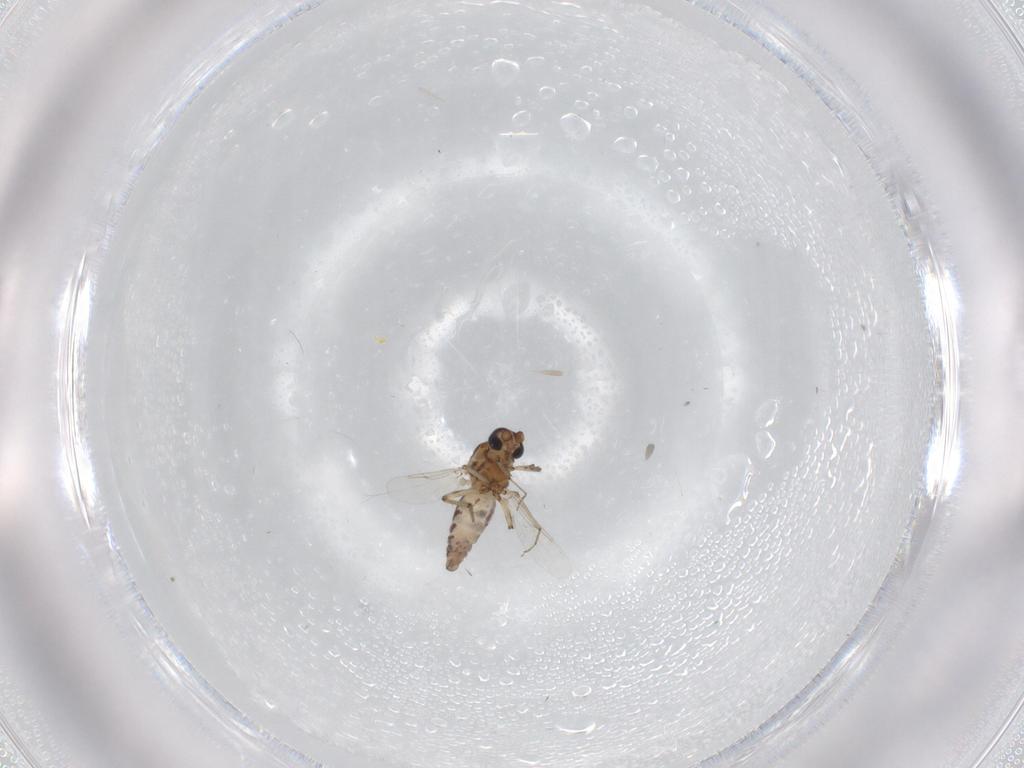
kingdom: Animalia
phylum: Arthropoda
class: Insecta
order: Diptera
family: Ceratopogonidae
